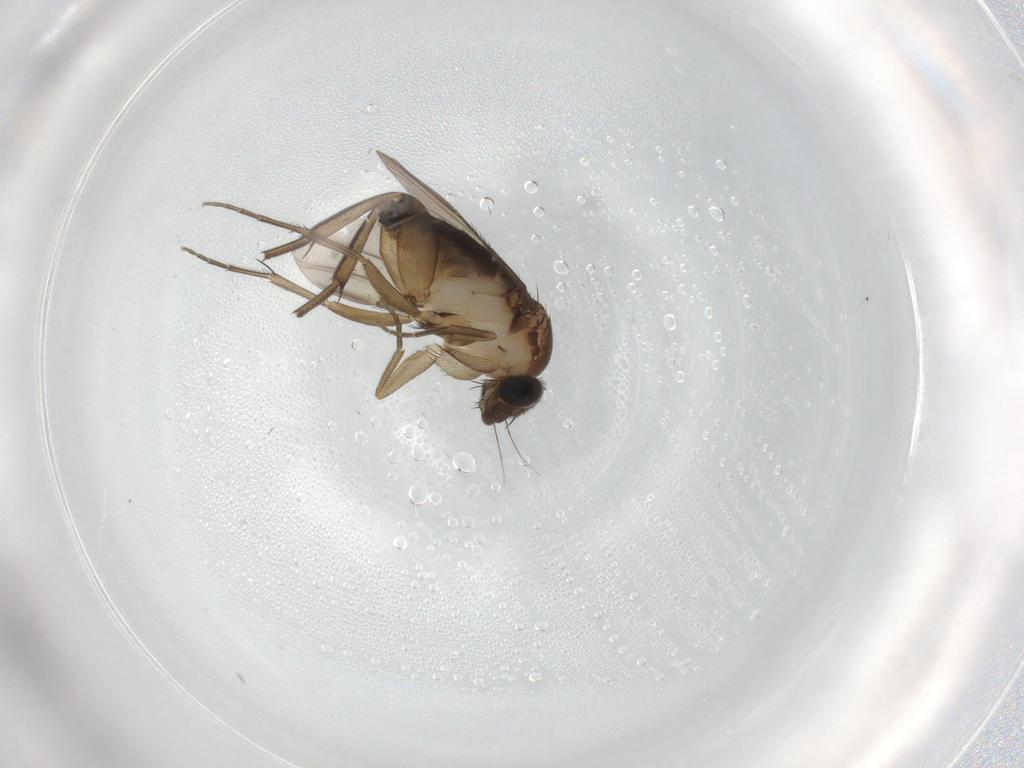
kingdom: Animalia
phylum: Arthropoda
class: Insecta
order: Diptera
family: Phoridae
